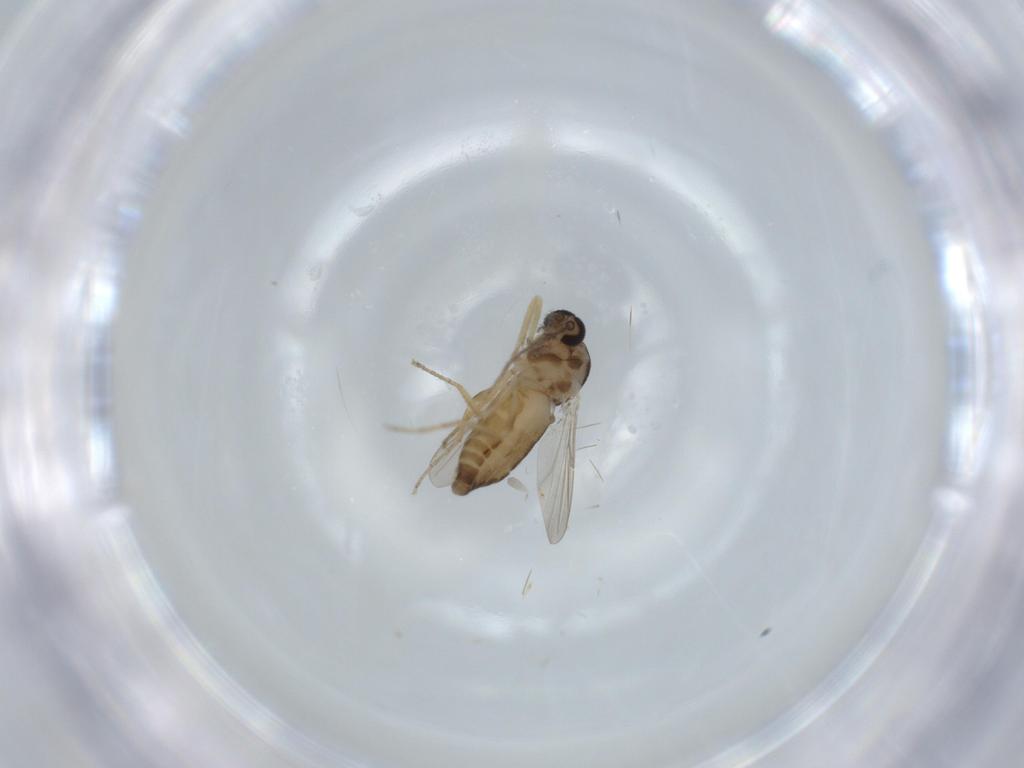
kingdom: Animalia
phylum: Arthropoda
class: Insecta
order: Diptera
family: Ceratopogonidae
